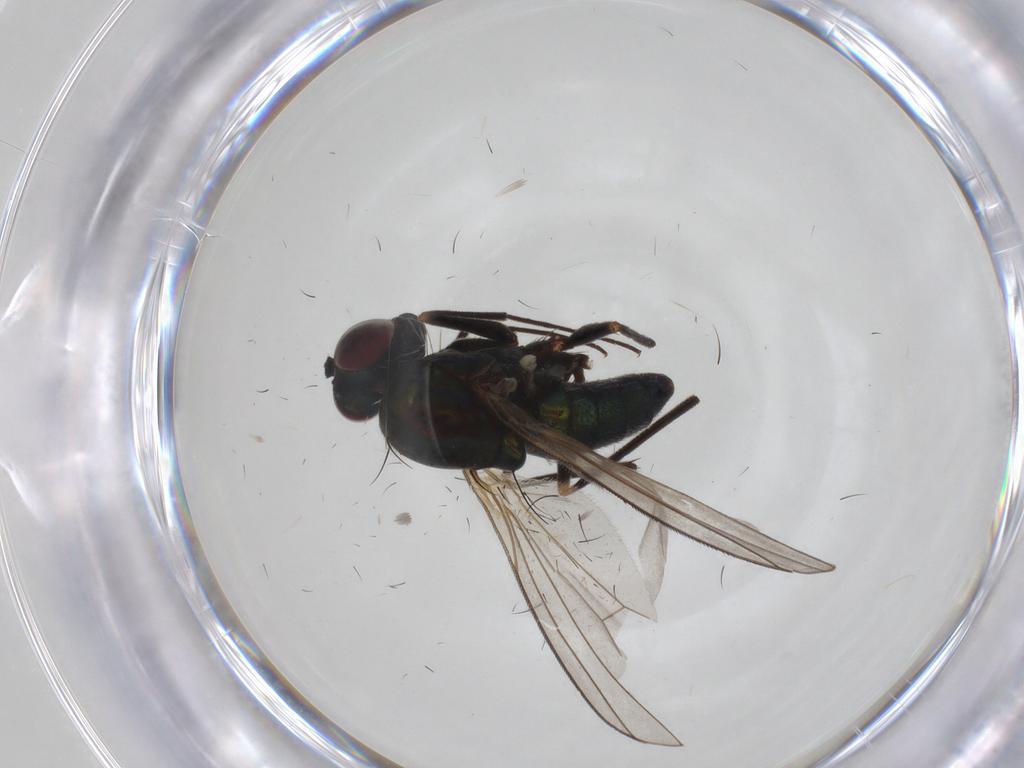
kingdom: Animalia
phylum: Arthropoda
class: Insecta
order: Diptera
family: Dolichopodidae
